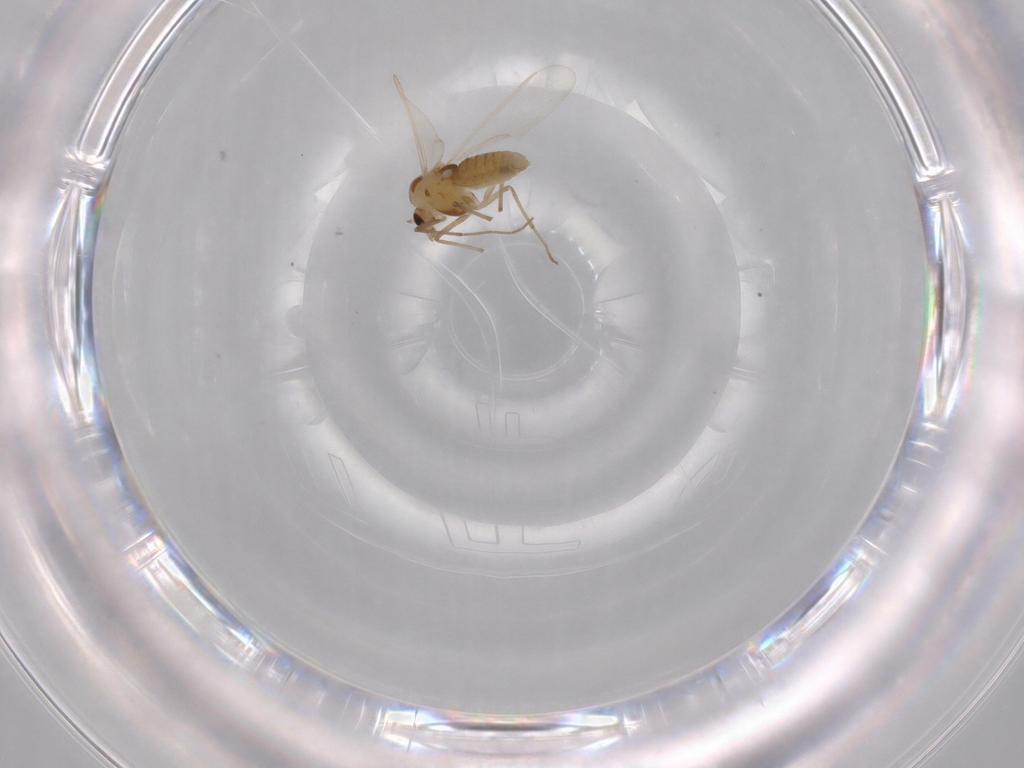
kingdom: Animalia
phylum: Arthropoda
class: Insecta
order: Diptera
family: Chironomidae
